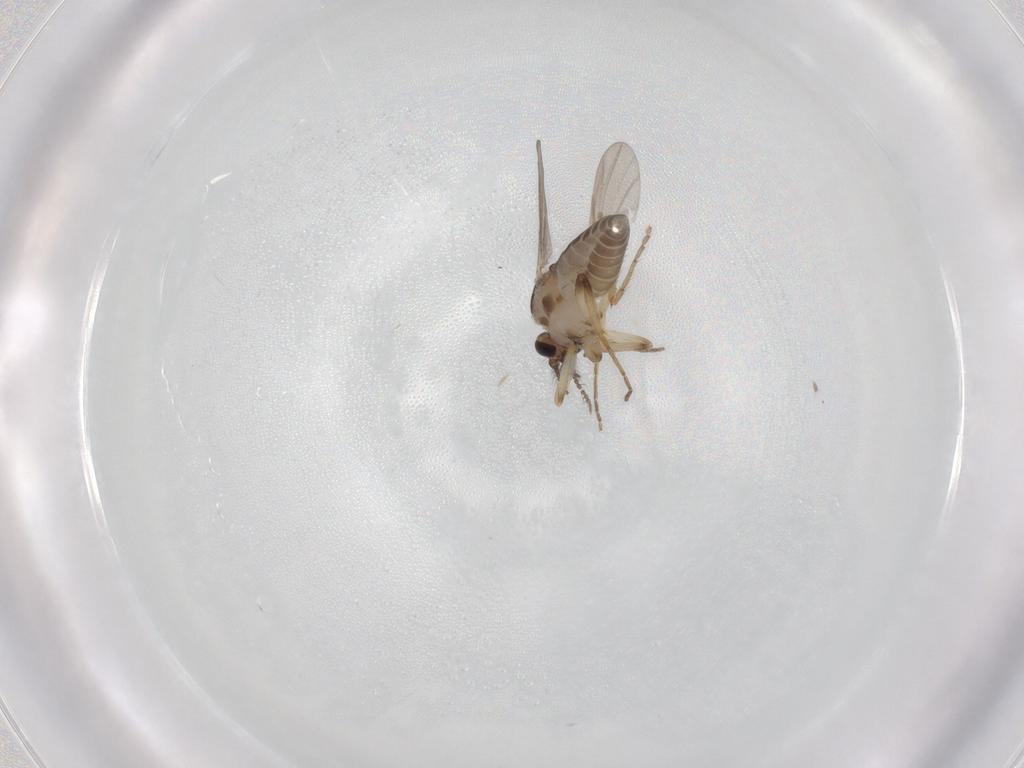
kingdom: Animalia
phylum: Arthropoda
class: Insecta
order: Diptera
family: Ceratopogonidae
